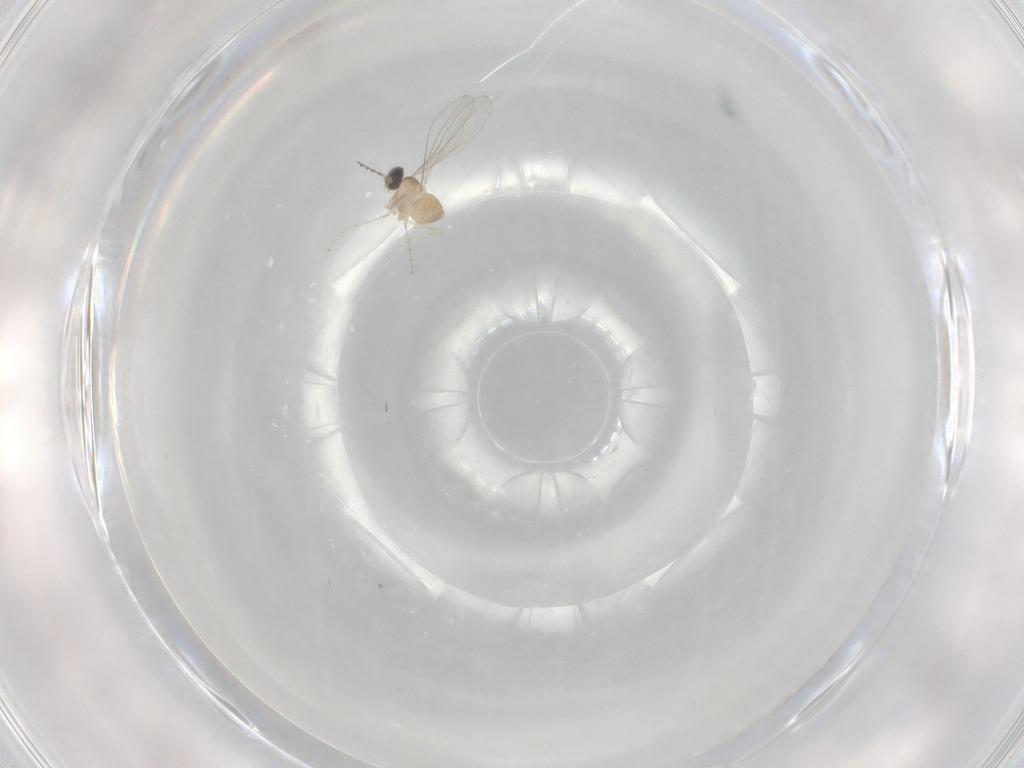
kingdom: Animalia
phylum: Arthropoda
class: Insecta
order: Diptera
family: Cecidomyiidae
